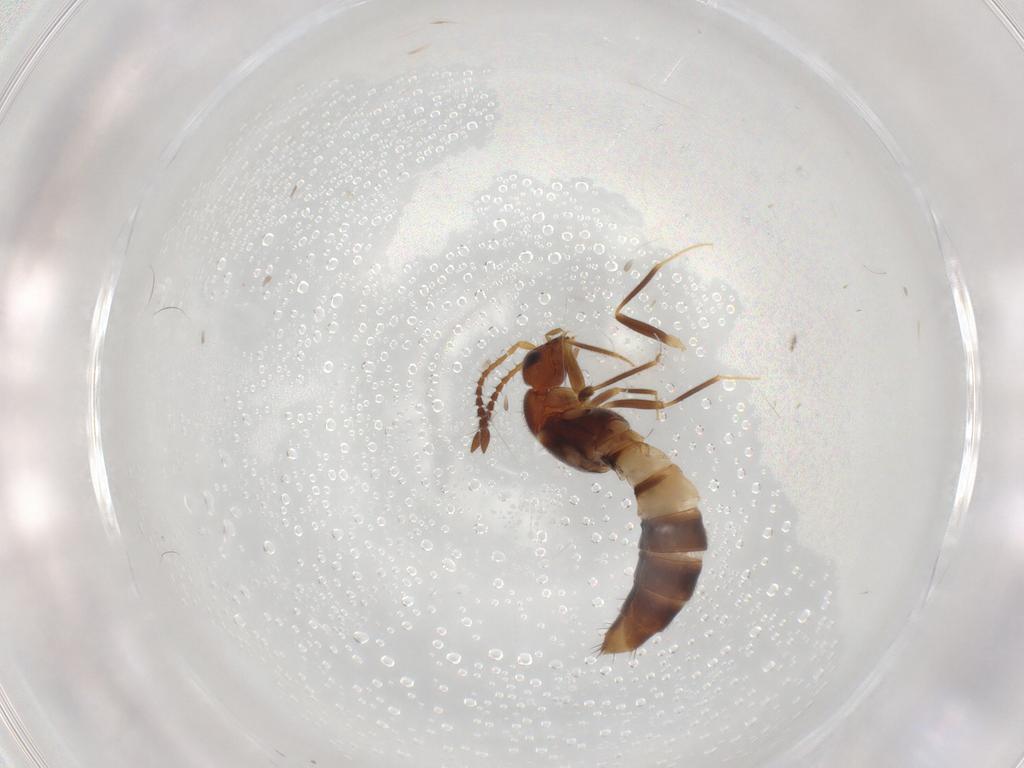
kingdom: Animalia
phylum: Arthropoda
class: Insecta
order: Coleoptera
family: Staphylinidae
